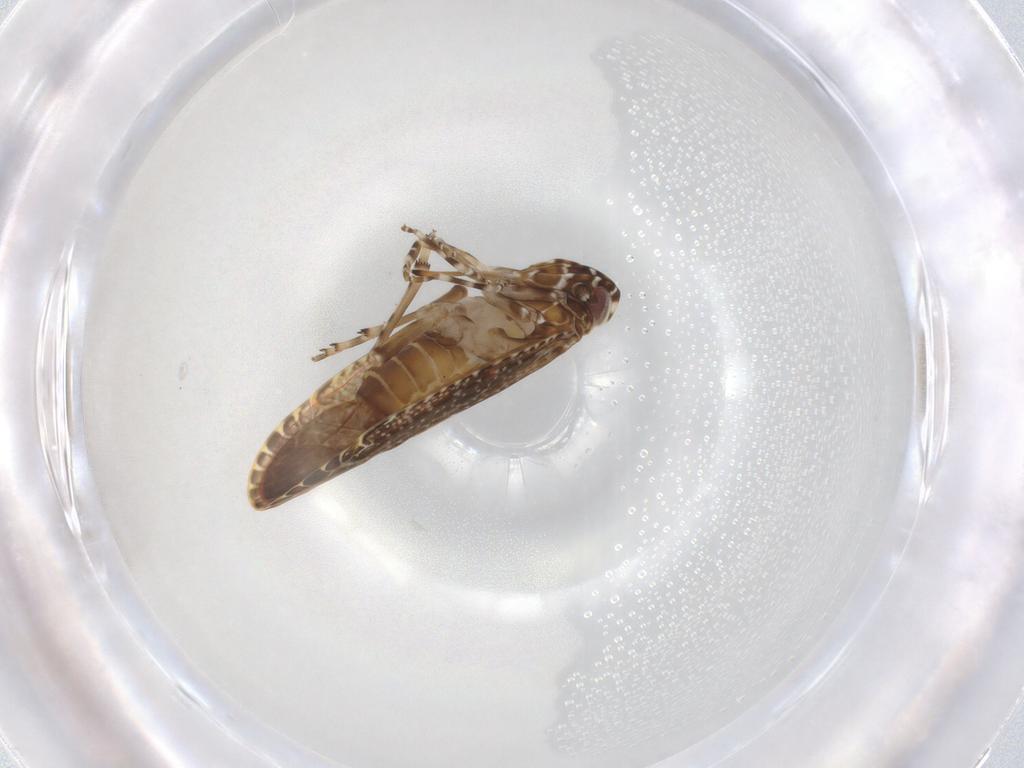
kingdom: Animalia
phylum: Arthropoda
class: Insecta
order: Hemiptera
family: Achilidae
